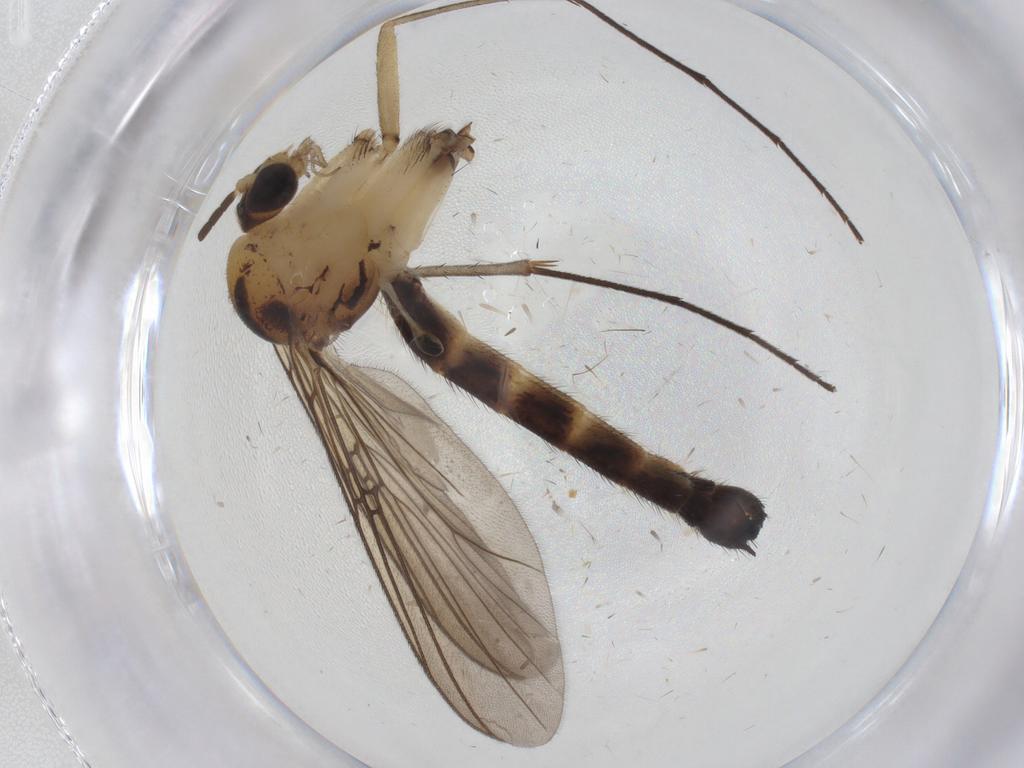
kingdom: Animalia
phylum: Arthropoda
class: Insecta
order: Diptera
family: Mycetophilidae
